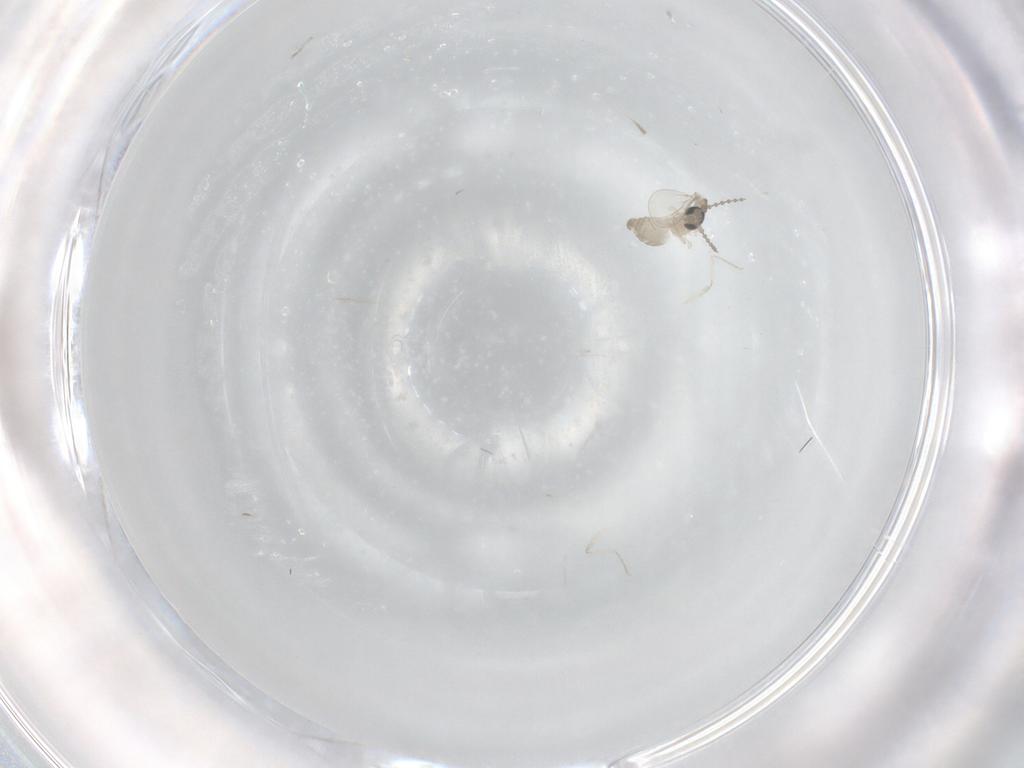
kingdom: Animalia
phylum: Arthropoda
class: Insecta
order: Diptera
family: Cecidomyiidae
